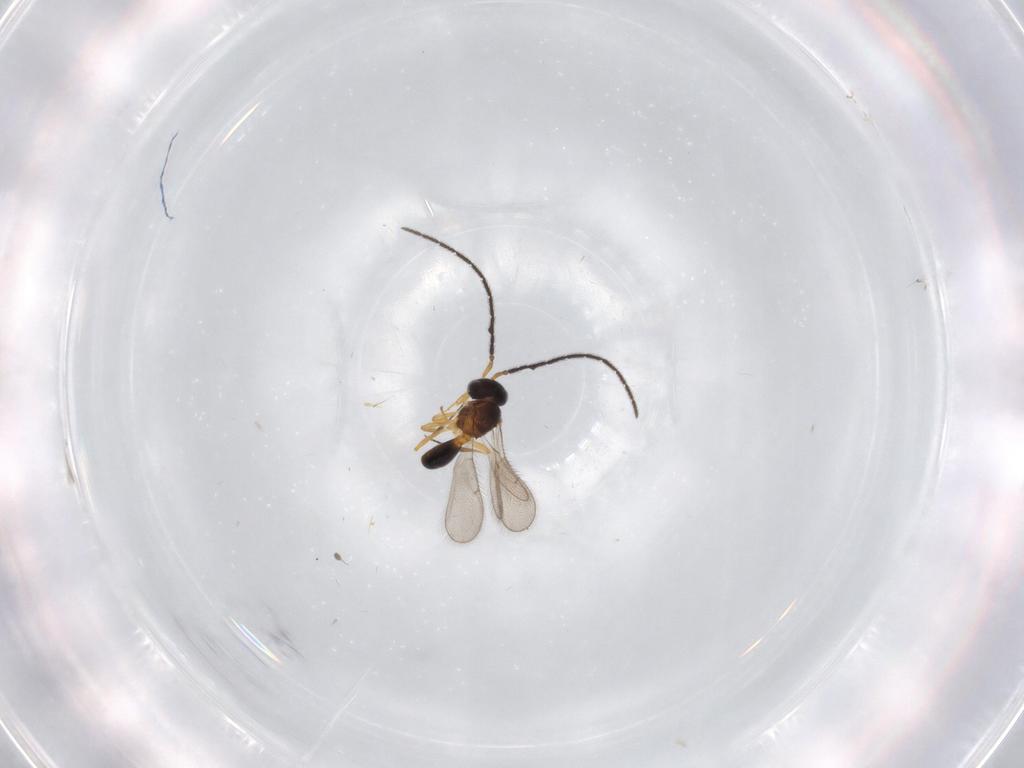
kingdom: Animalia
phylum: Arthropoda
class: Insecta
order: Hymenoptera
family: Scelionidae
